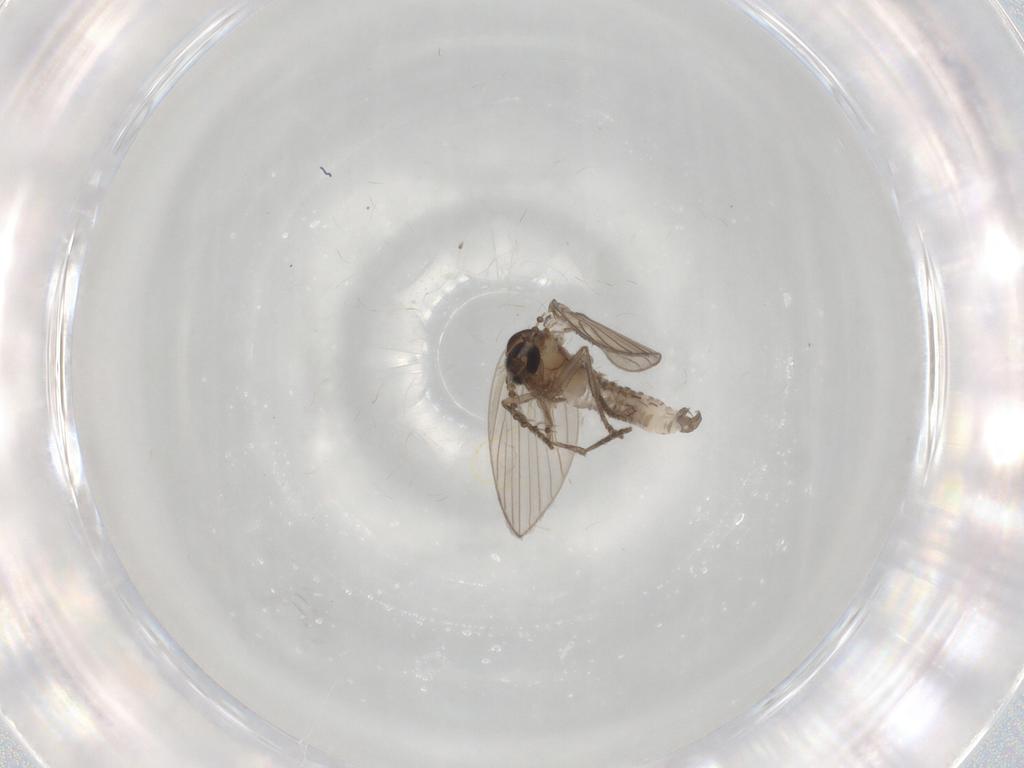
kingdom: Animalia
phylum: Arthropoda
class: Insecta
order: Diptera
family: Psychodidae
